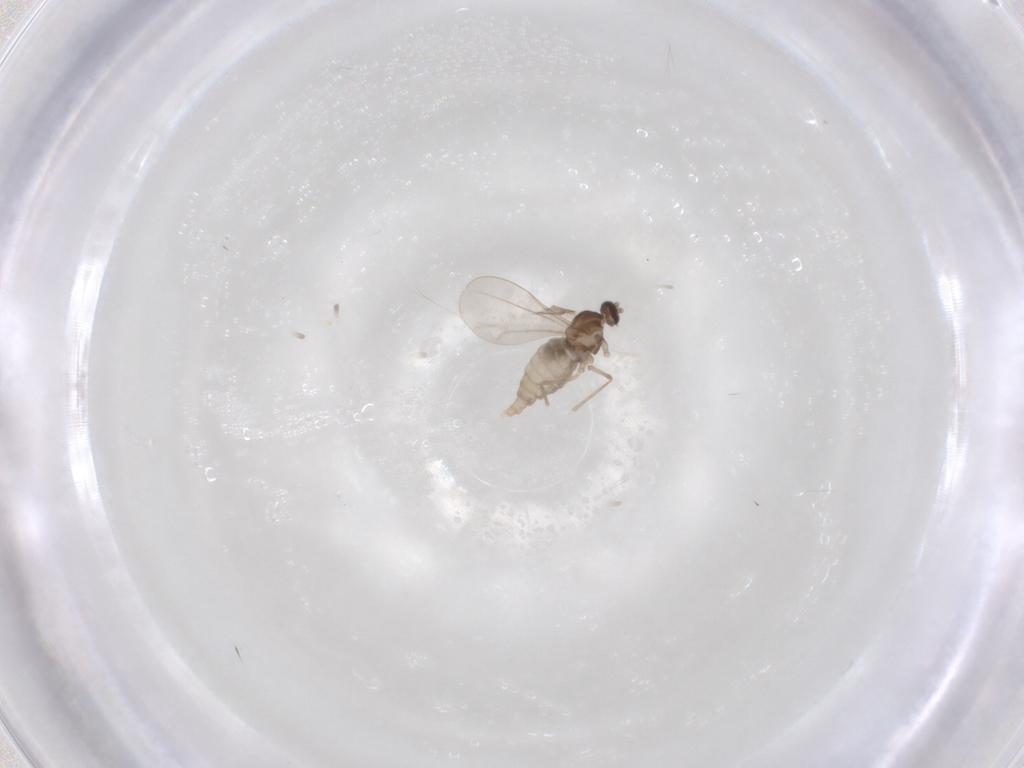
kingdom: Animalia
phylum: Arthropoda
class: Insecta
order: Diptera
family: Cecidomyiidae
